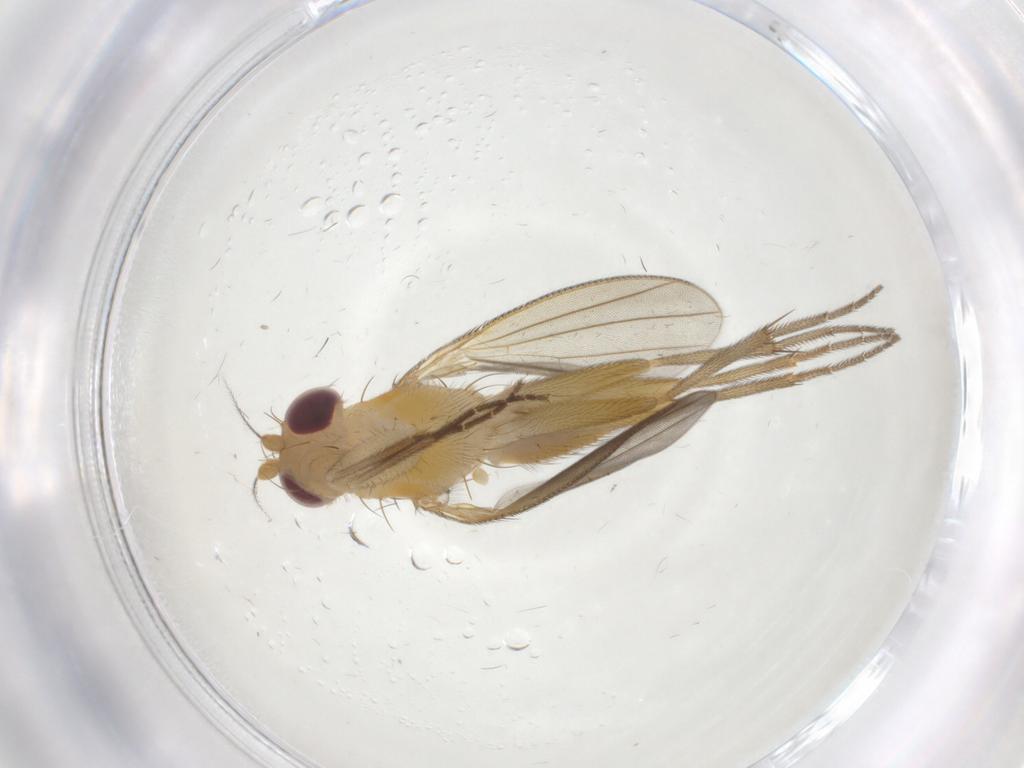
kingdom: Animalia
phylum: Arthropoda
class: Insecta
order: Diptera
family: Clusiidae
